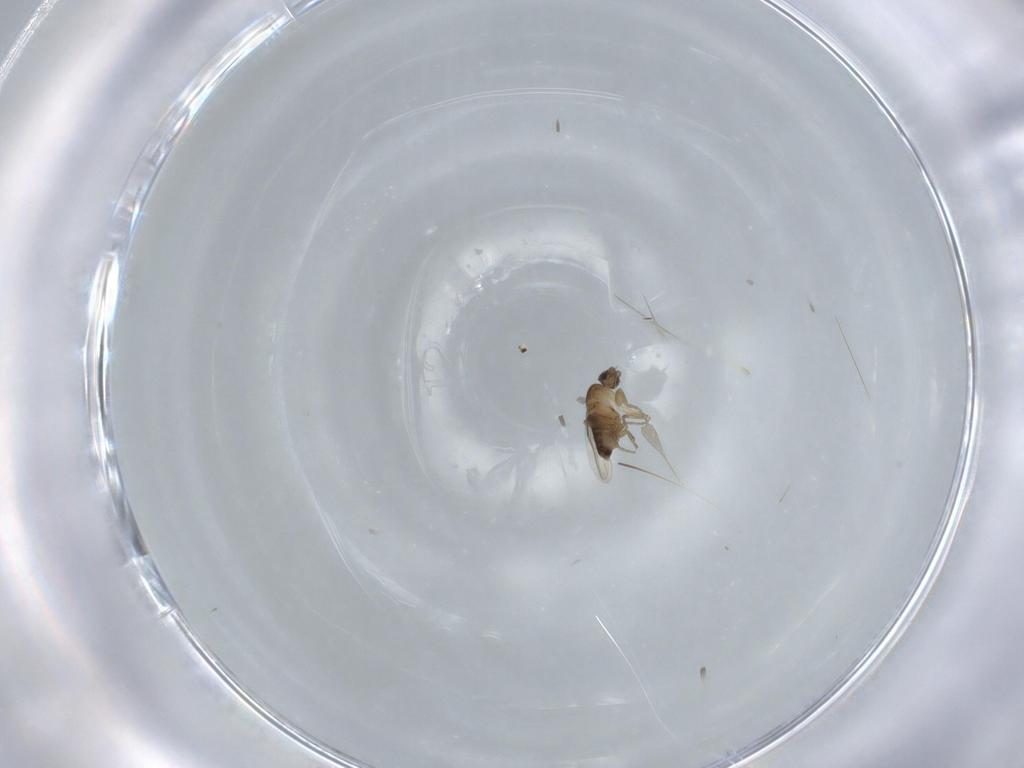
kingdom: Animalia
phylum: Arthropoda
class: Insecta
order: Diptera
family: Phoridae
